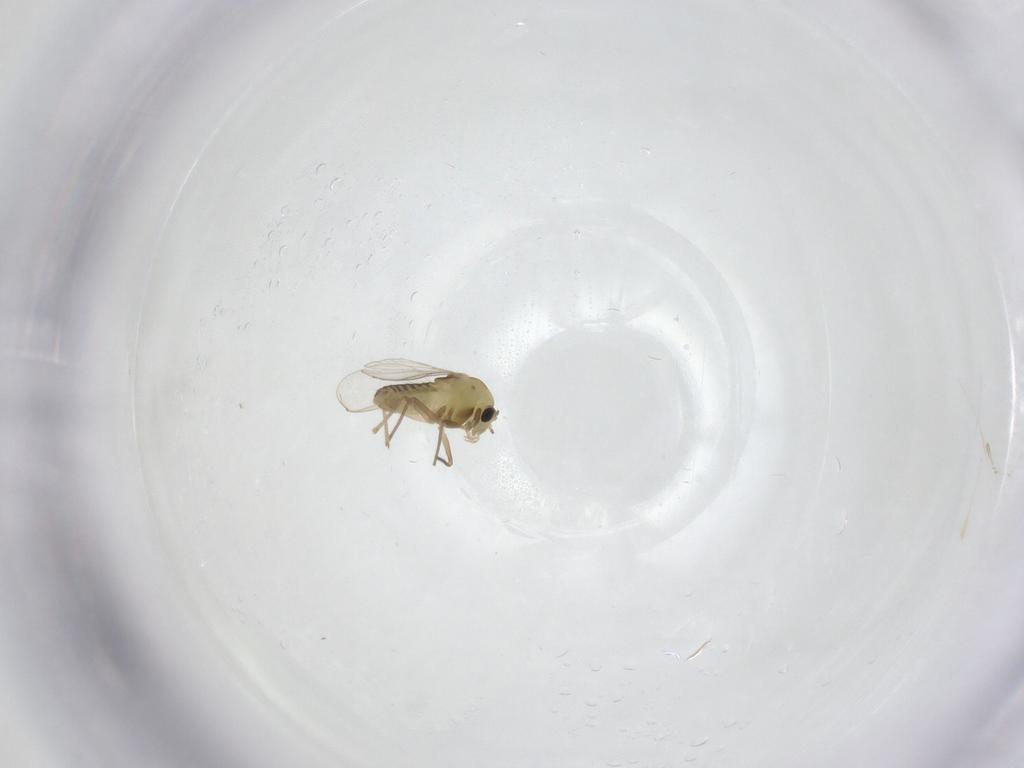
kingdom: Animalia
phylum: Arthropoda
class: Insecta
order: Diptera
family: Chironomidae
